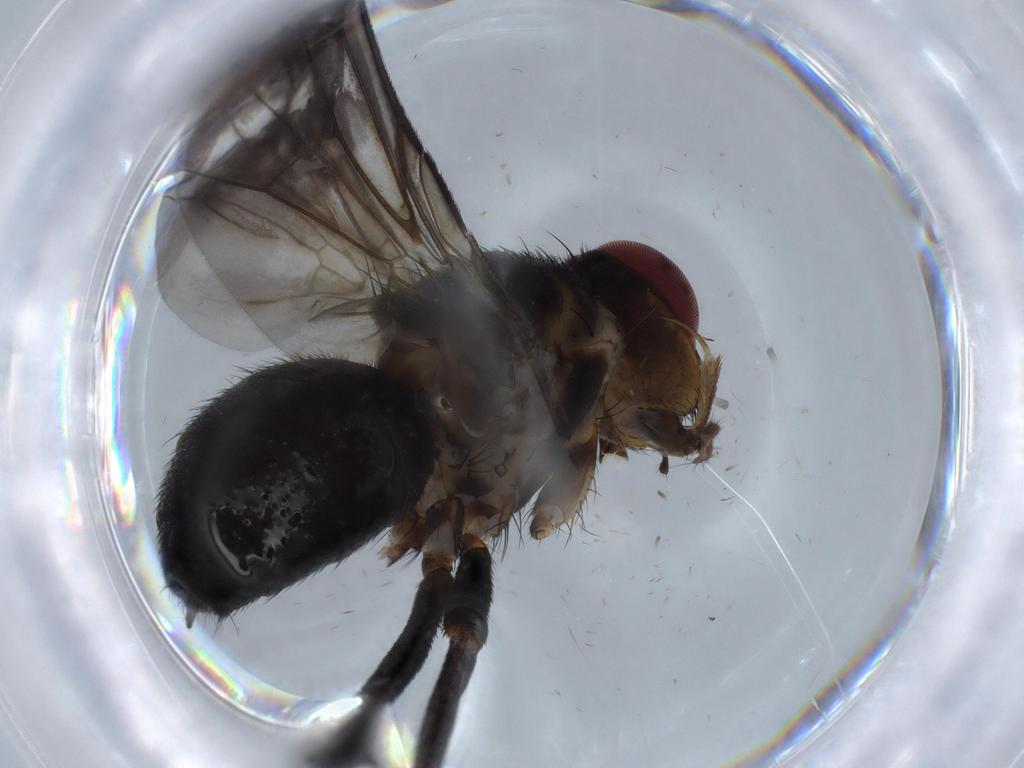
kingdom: Animalia
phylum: Arthropoda
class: Insecta
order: Diptera
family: Calliphoridae
